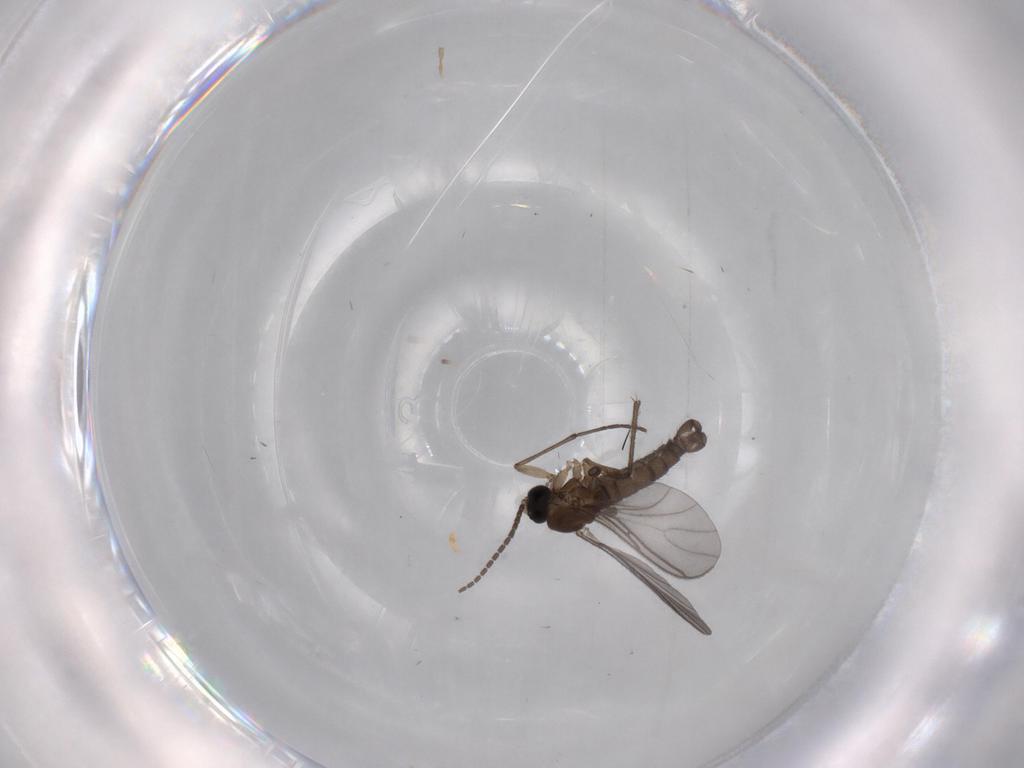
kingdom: Animalia
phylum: Arthropoda
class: Insecta
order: Diptera
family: Sciaridae
